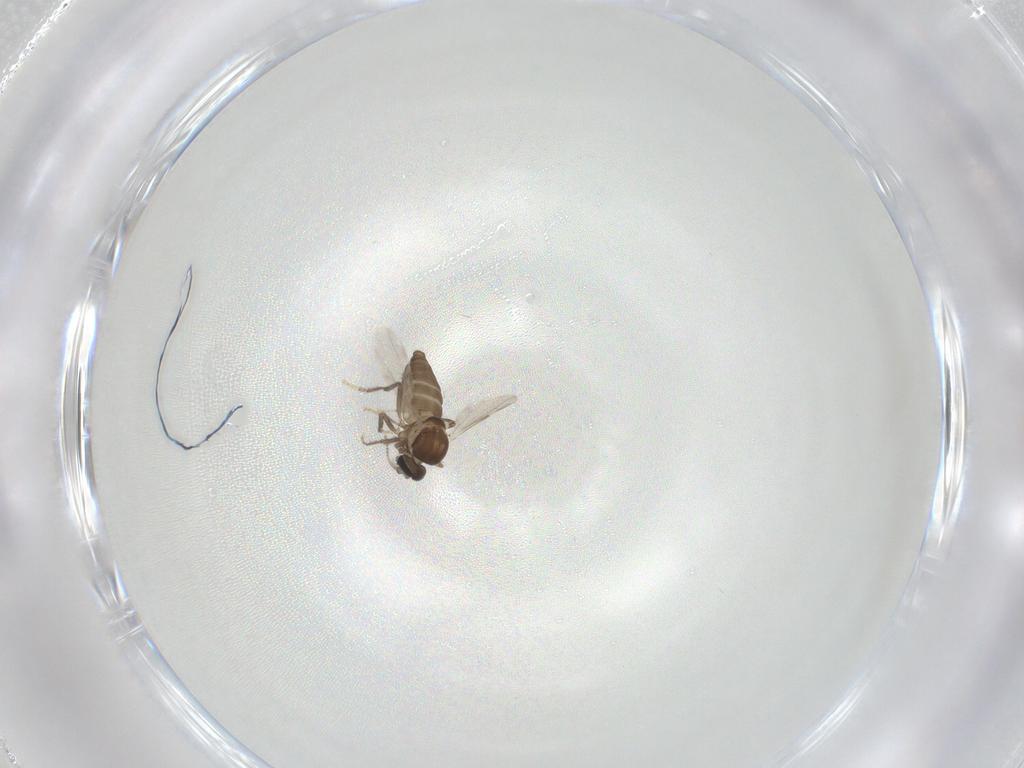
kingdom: Animalia
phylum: Arthropoda
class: Insecta
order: Diptera
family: Ceratopogonidae
